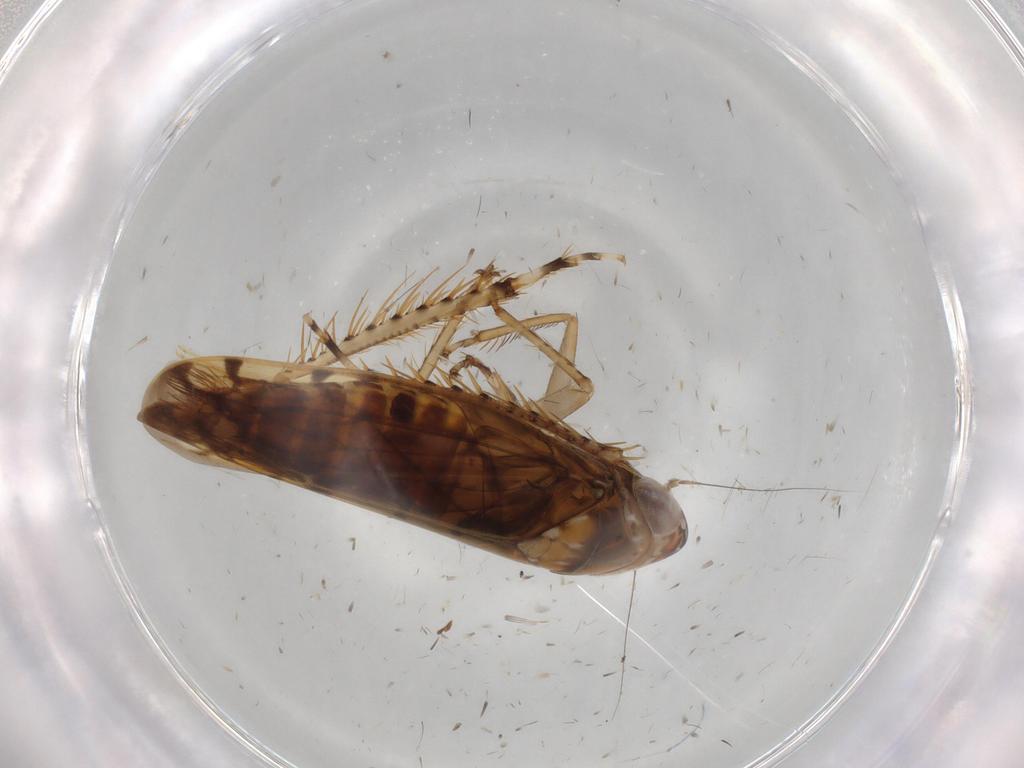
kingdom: Animalia
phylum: Arthropoda
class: Insecta
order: Hemiptera
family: Cicadellidae
